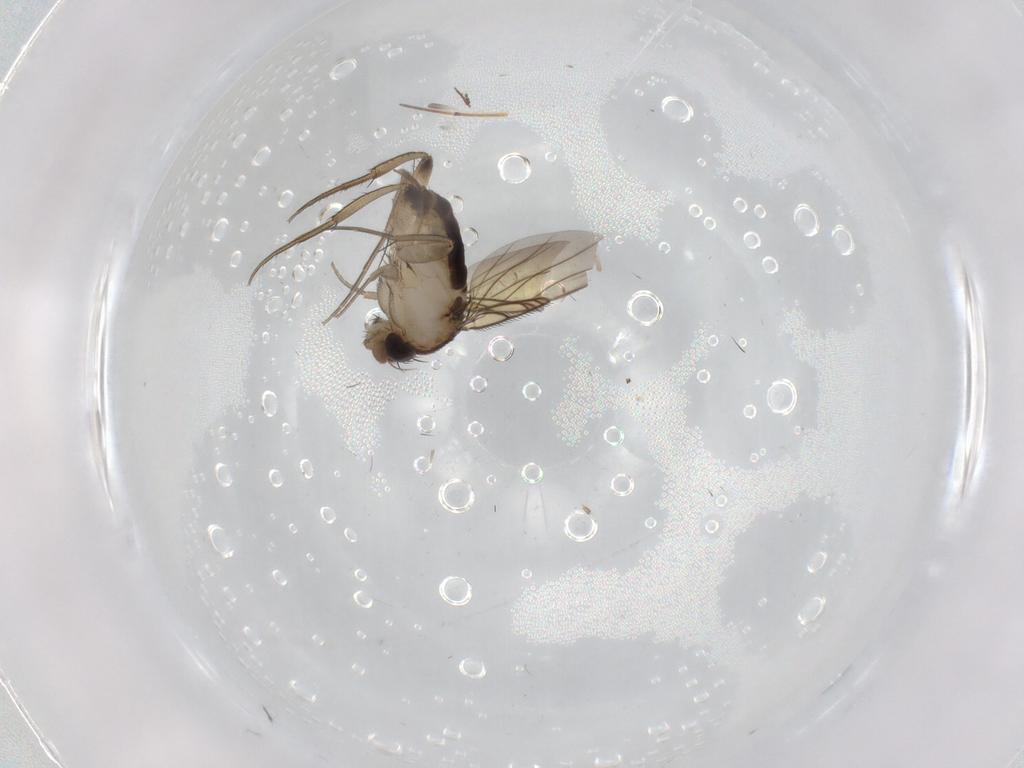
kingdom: Animalia
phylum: Arthropoda
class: Insecta
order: Diptera
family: Phoridae
